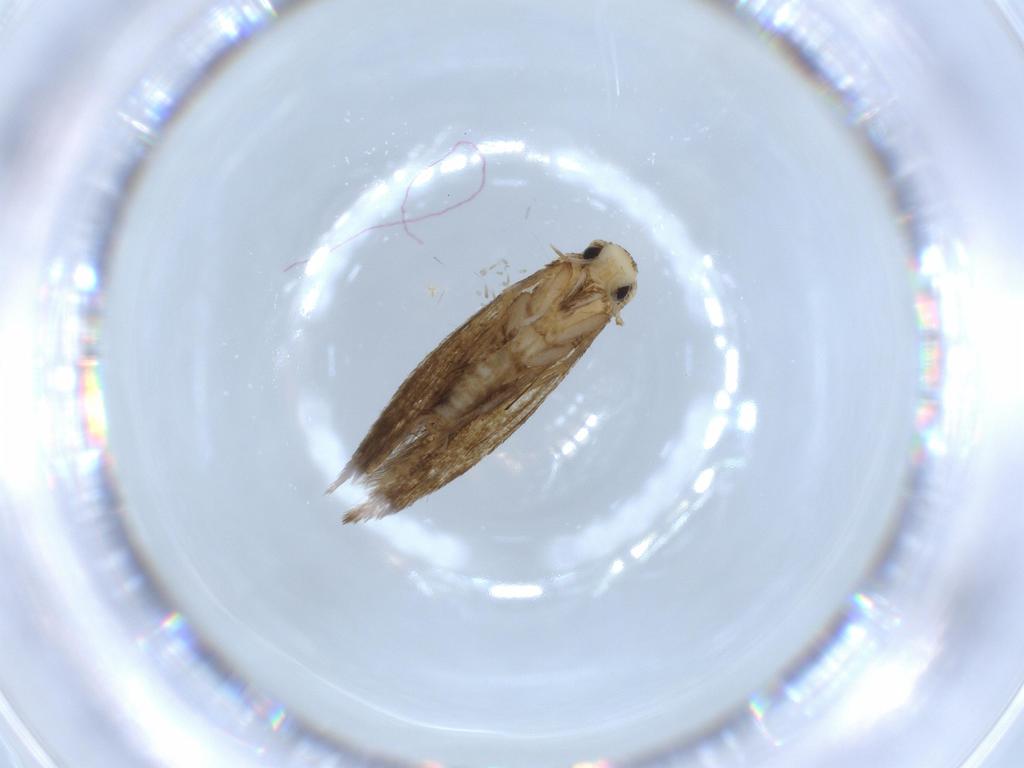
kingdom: Animalia
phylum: Arthropoda
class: Insecta
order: Lepidoptera
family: Tineidae
